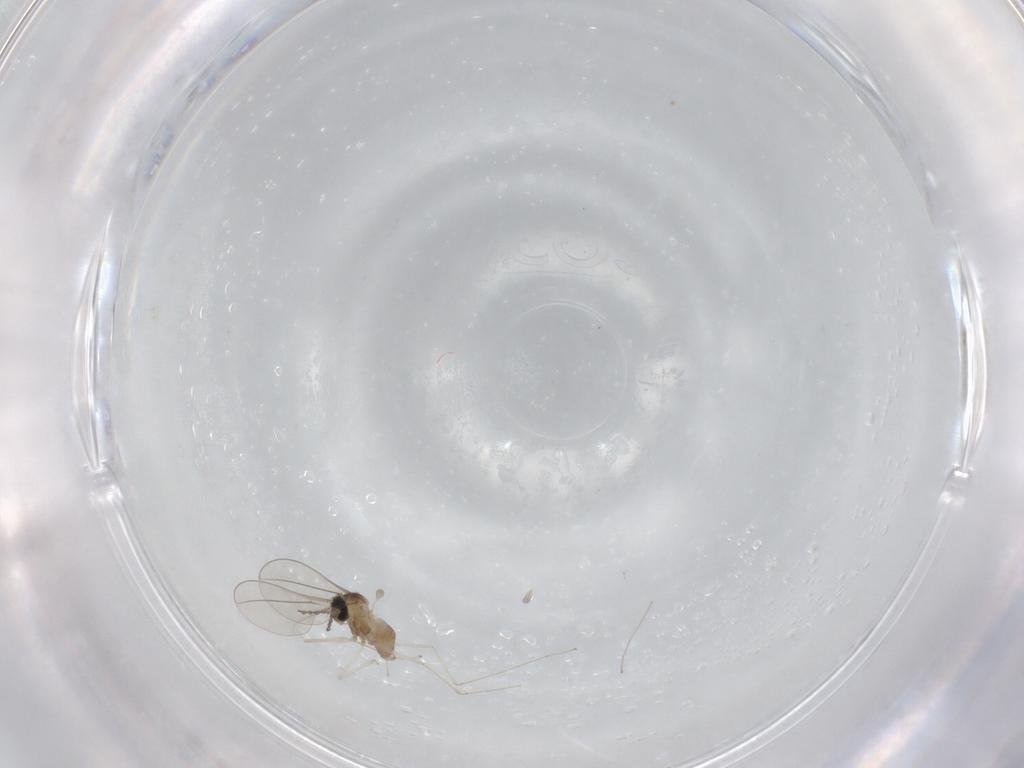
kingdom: Animalia
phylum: Arthropoda
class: Insecta
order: Diptera
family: Cecidomyiidae
